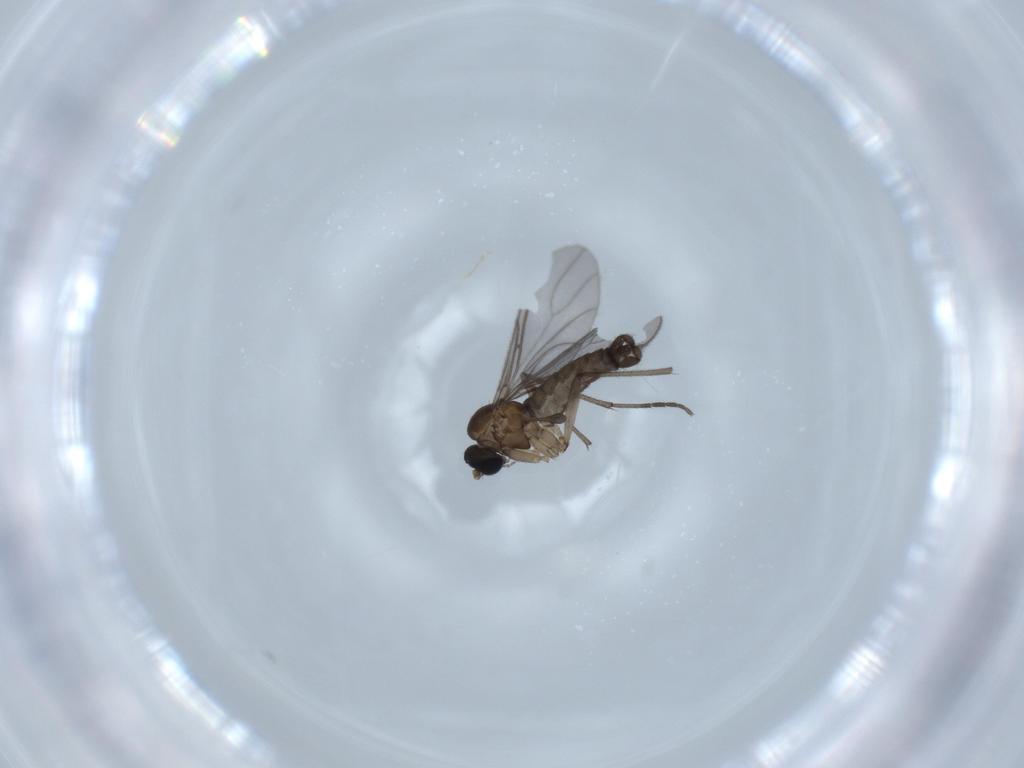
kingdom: Animalia
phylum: Arthropoda
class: Insecta
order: Diptera
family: Sciaridae
